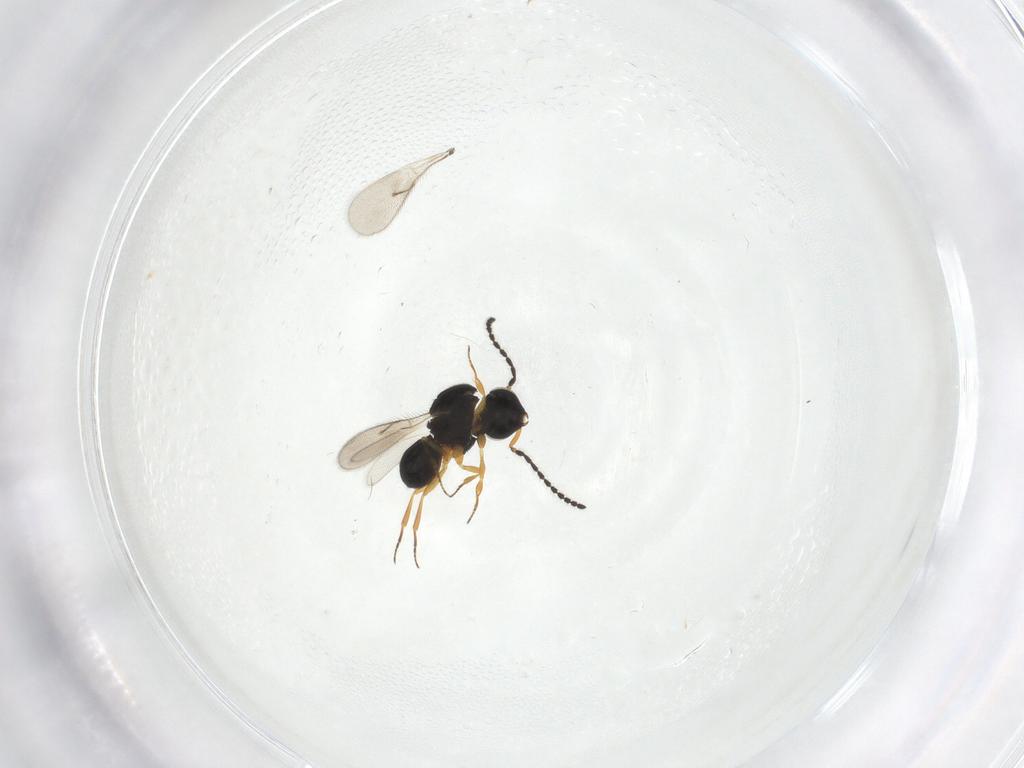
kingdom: Animalia
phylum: Arthropoda
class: Insecta
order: Hymenoptera
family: Scelionidae
